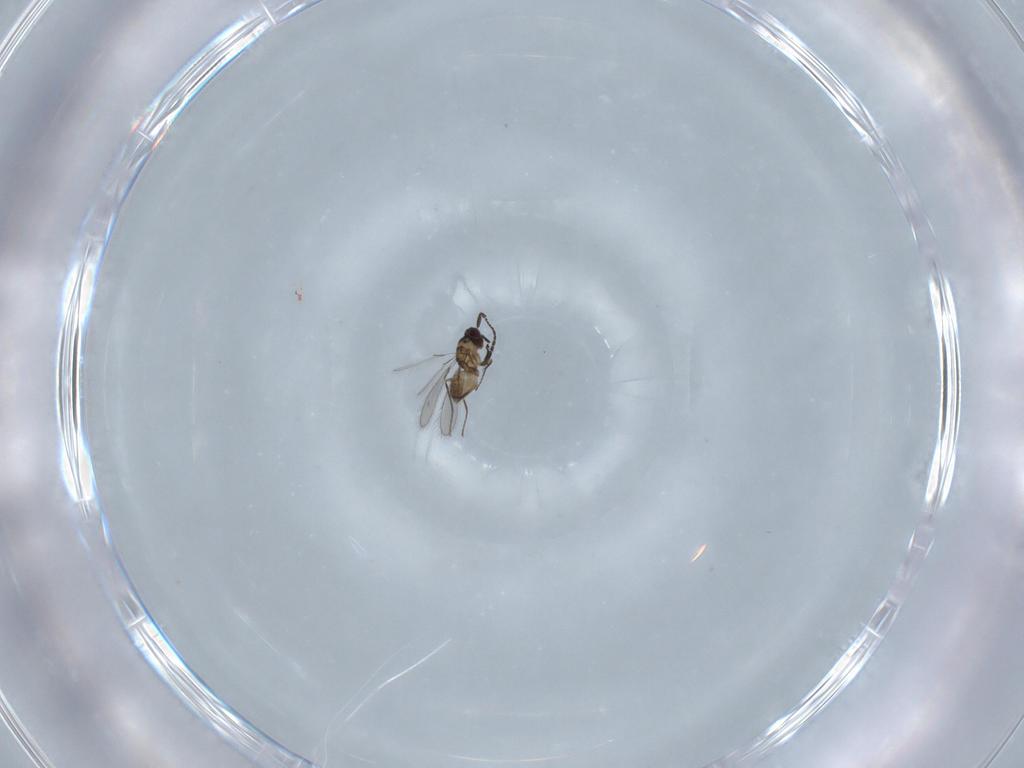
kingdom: Animalia
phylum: Arthropoda
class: Insecta
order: Hymenoptera
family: Mymaridae
